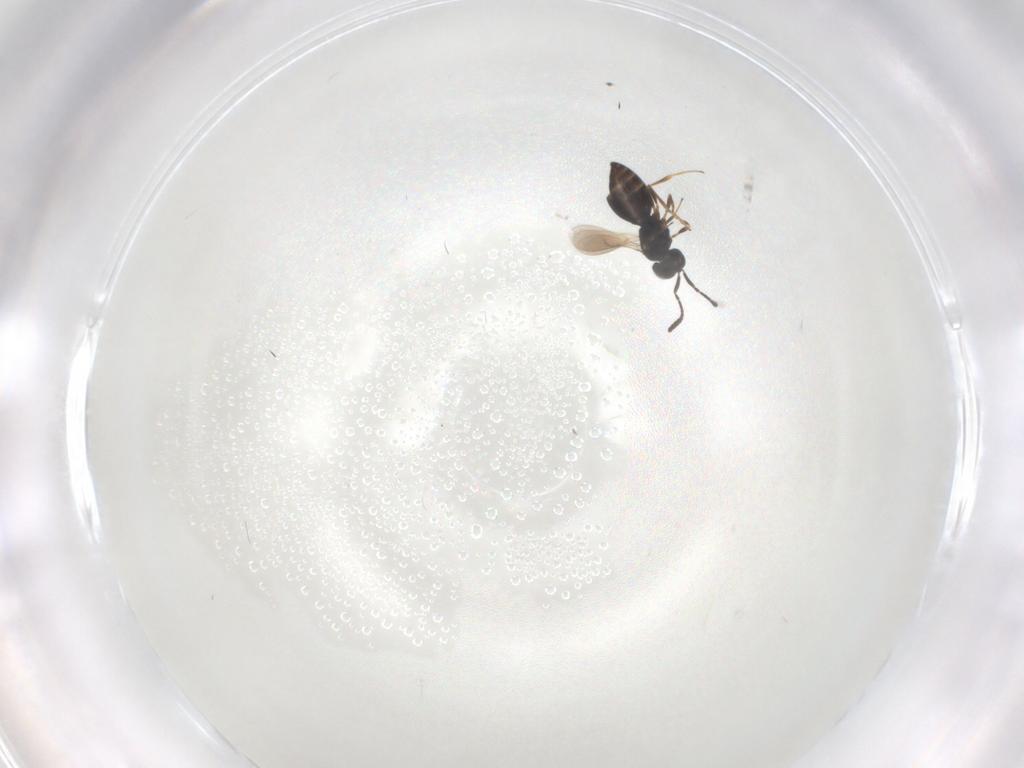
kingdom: Animalia
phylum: Arthropoda
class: Insecta
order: Hymenoptera
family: Scelionidae
